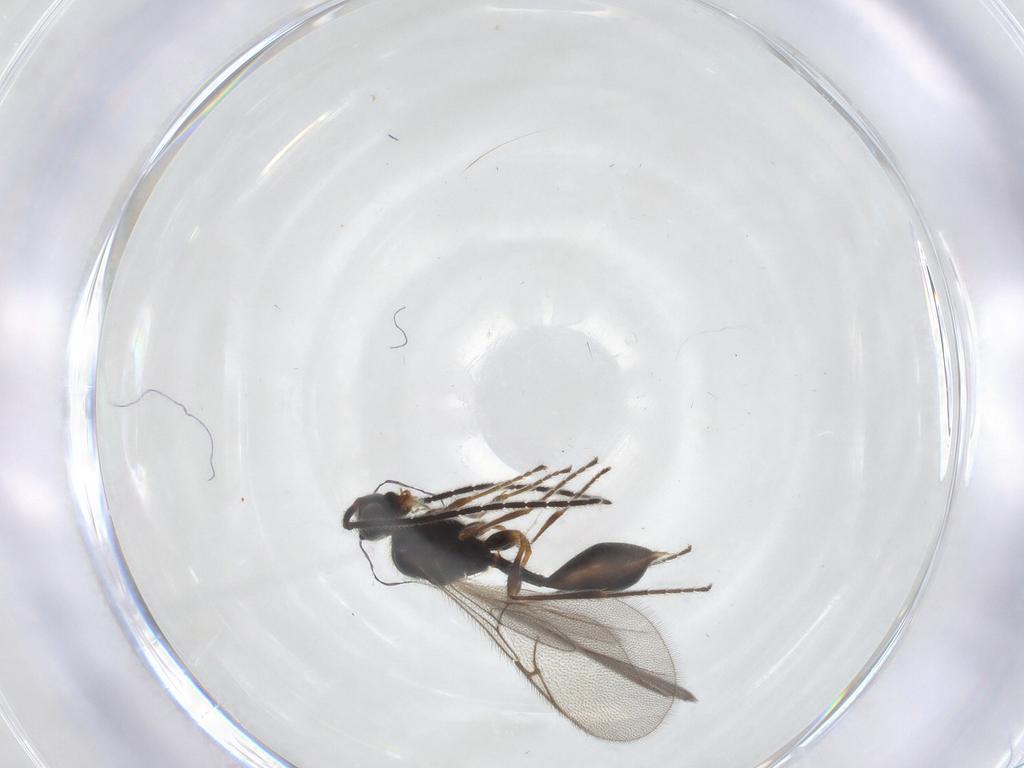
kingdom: Animalia
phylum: Arthropoda
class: Insecta
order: Hymenoptera
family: Diapriidae
